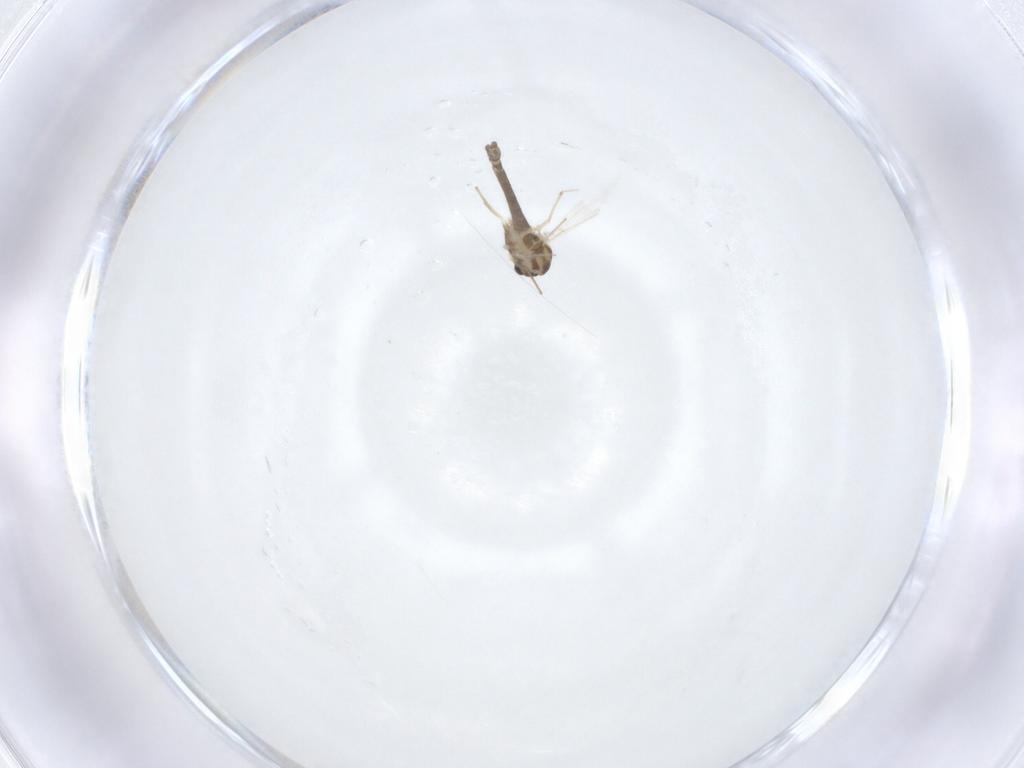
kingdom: Animalia
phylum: Arthropoda
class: Insecta
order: Diptera
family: Chironomidae
